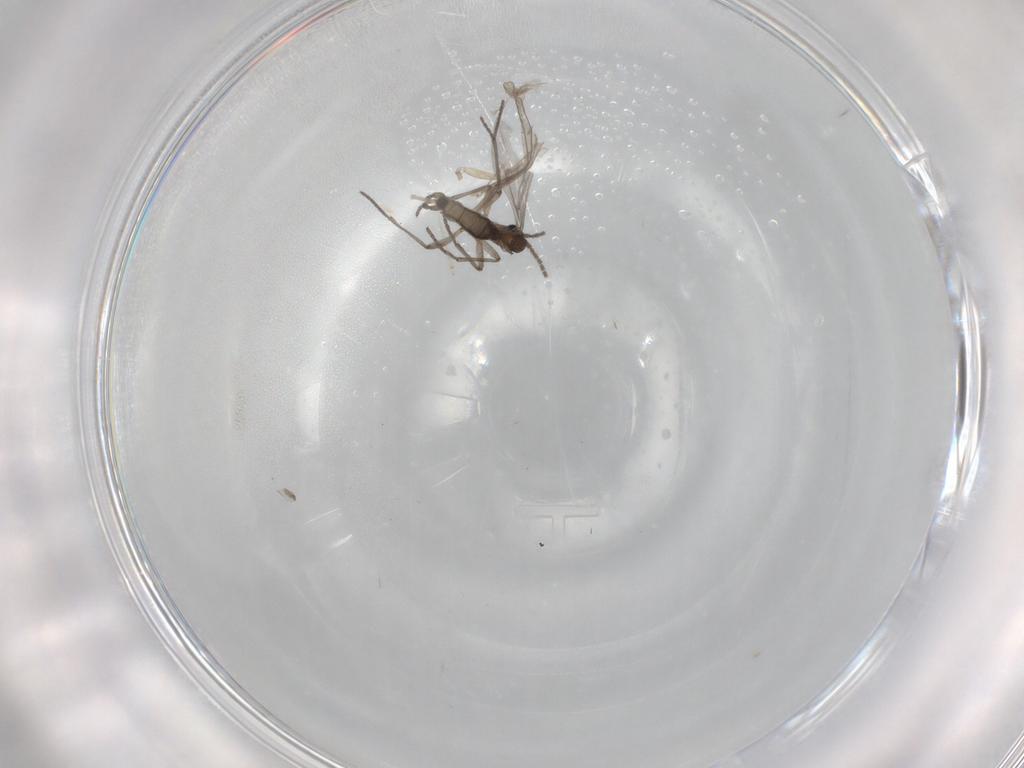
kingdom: Animalia
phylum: Arthropoda
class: Insecta
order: Diptera
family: Sciaridae
